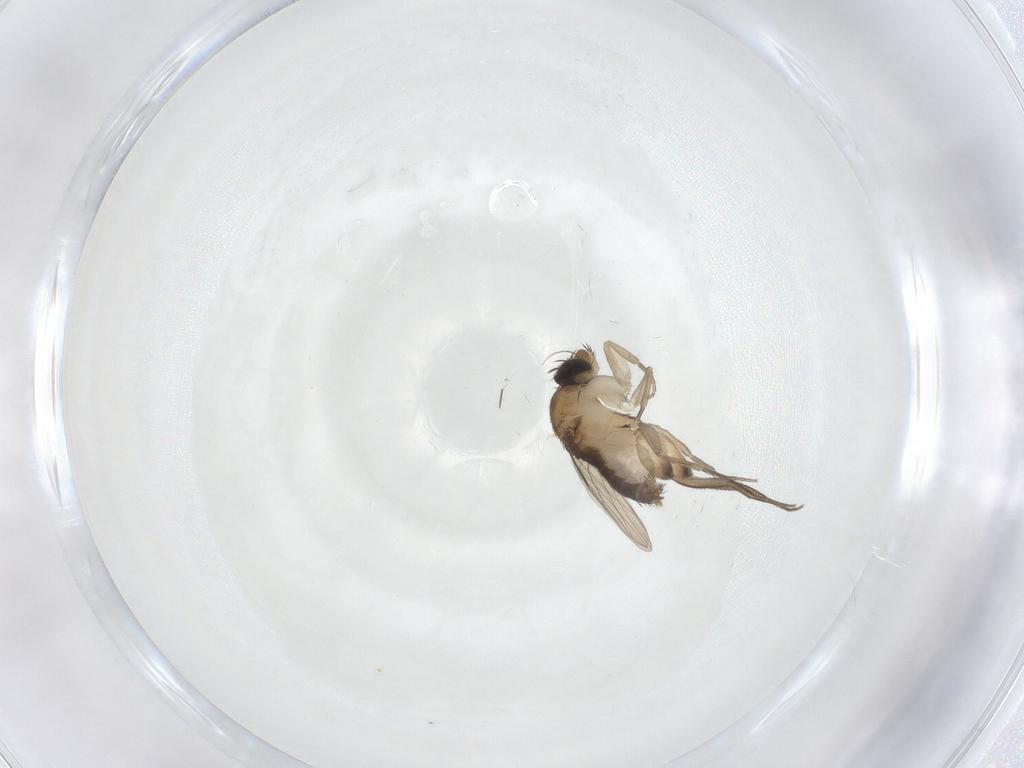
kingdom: Animalia
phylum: Arthropoda
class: Insecta
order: Diptera
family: Phoridae
